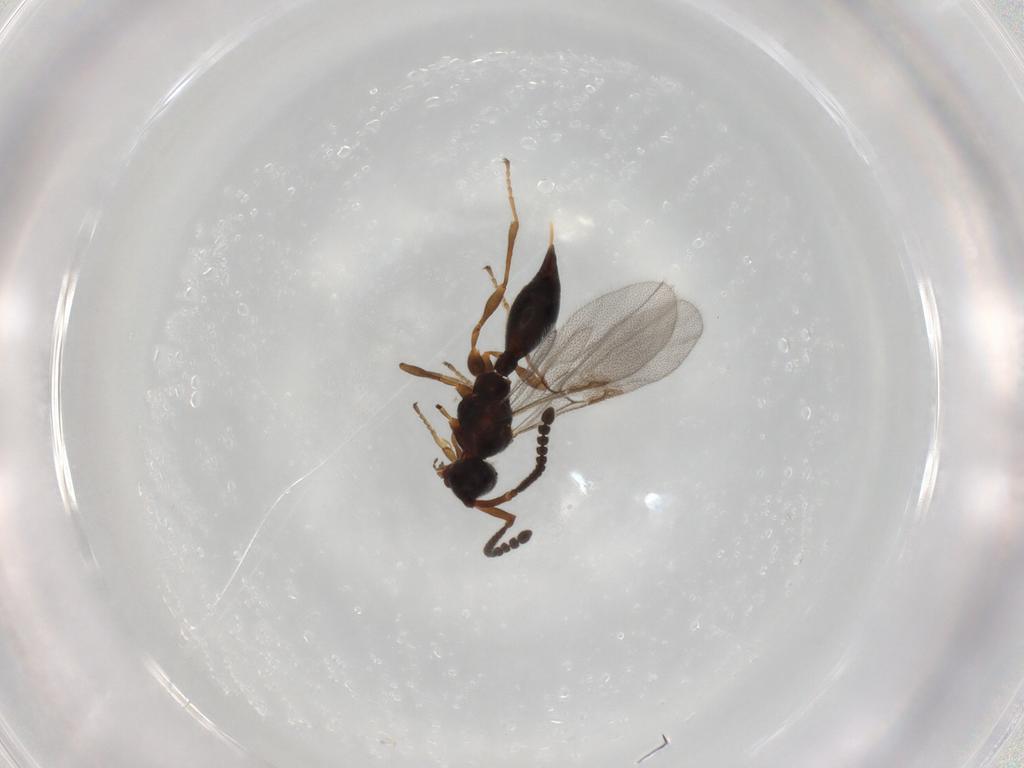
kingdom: Animalia
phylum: Arthropoda
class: Insecta
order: Hymenoptera
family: Diapriidae
